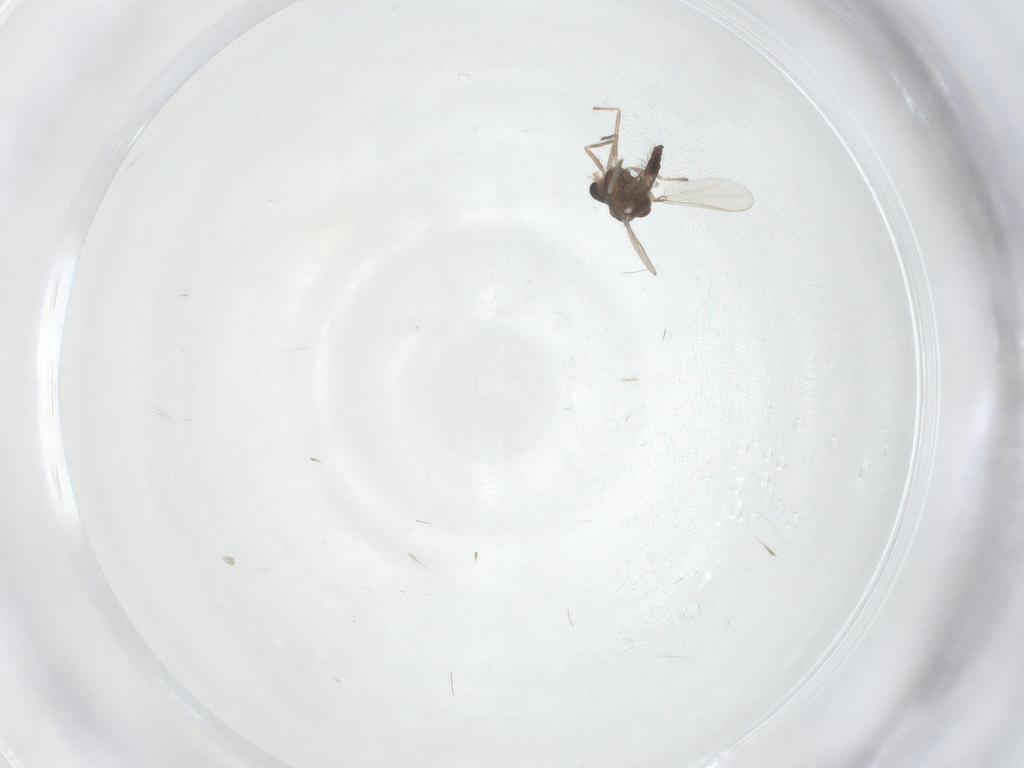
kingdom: Animalia
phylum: Arthropoda
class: Insecta
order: Diptera
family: Chironomidae
